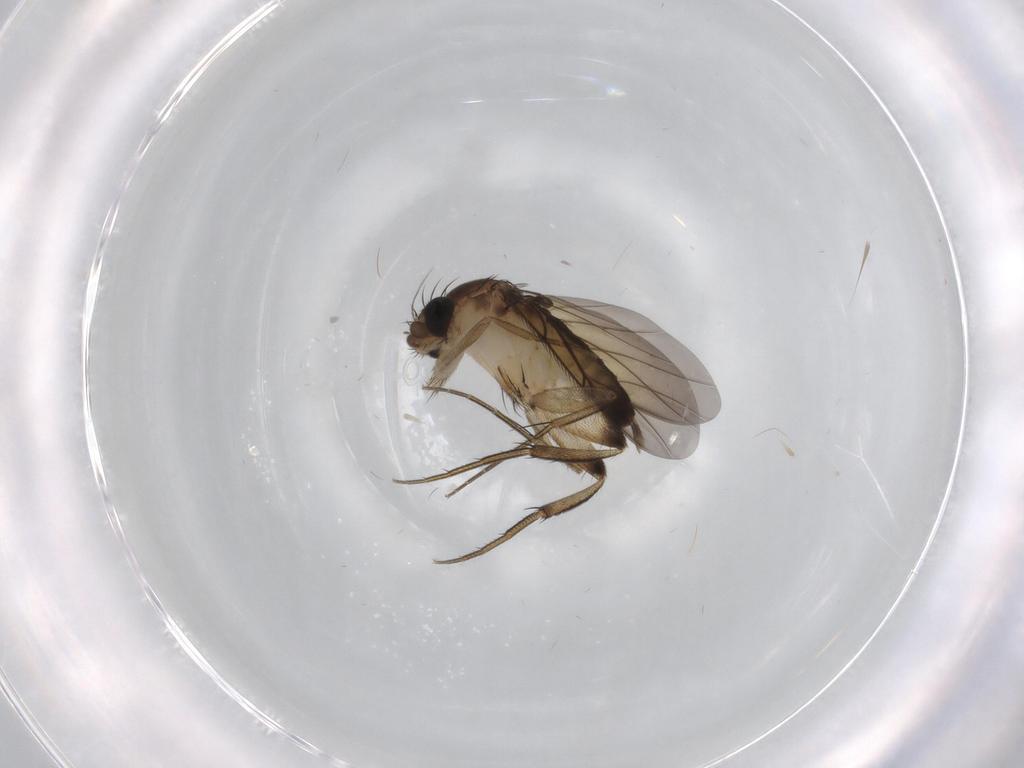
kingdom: Animalia
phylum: Arthropoda
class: Insecta
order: Diptera
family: Phoridae
